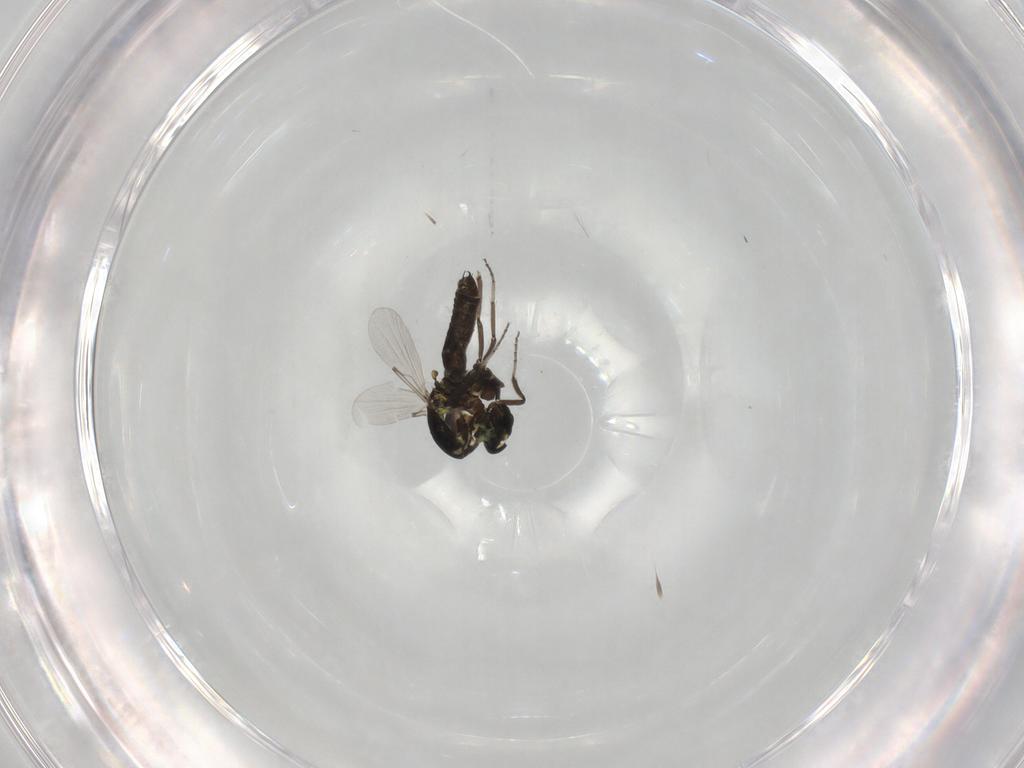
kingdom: Animalia
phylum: Arthropoda
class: Insecta
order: Diptera
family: Ceratopogonidae
